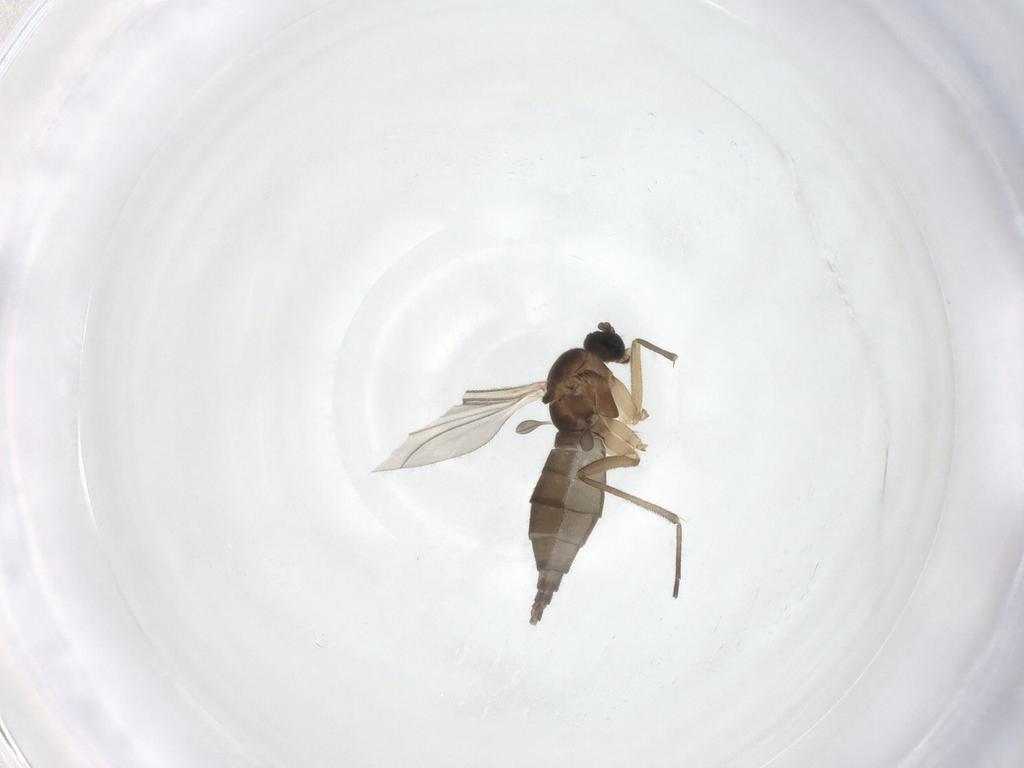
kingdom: Animalia
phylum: Arthropoda
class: Insecta
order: Diptera
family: Sciaridae
